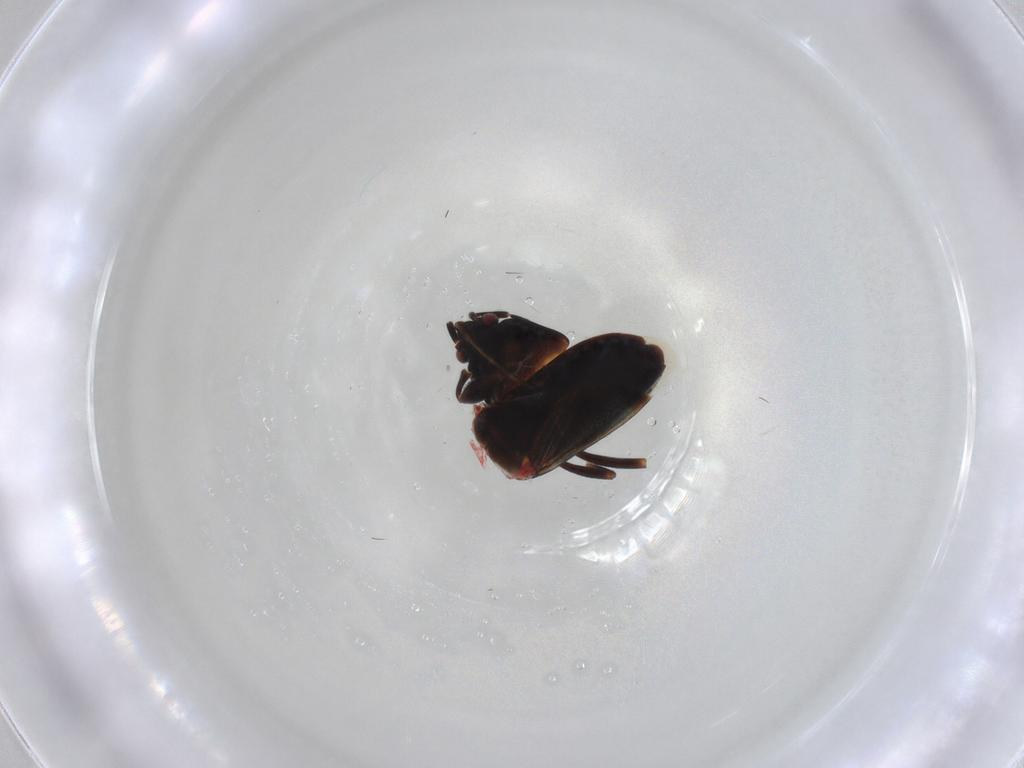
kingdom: Animalia
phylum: Arthropoda
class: Insecta
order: Hemiptera
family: Rhyparochromidae
